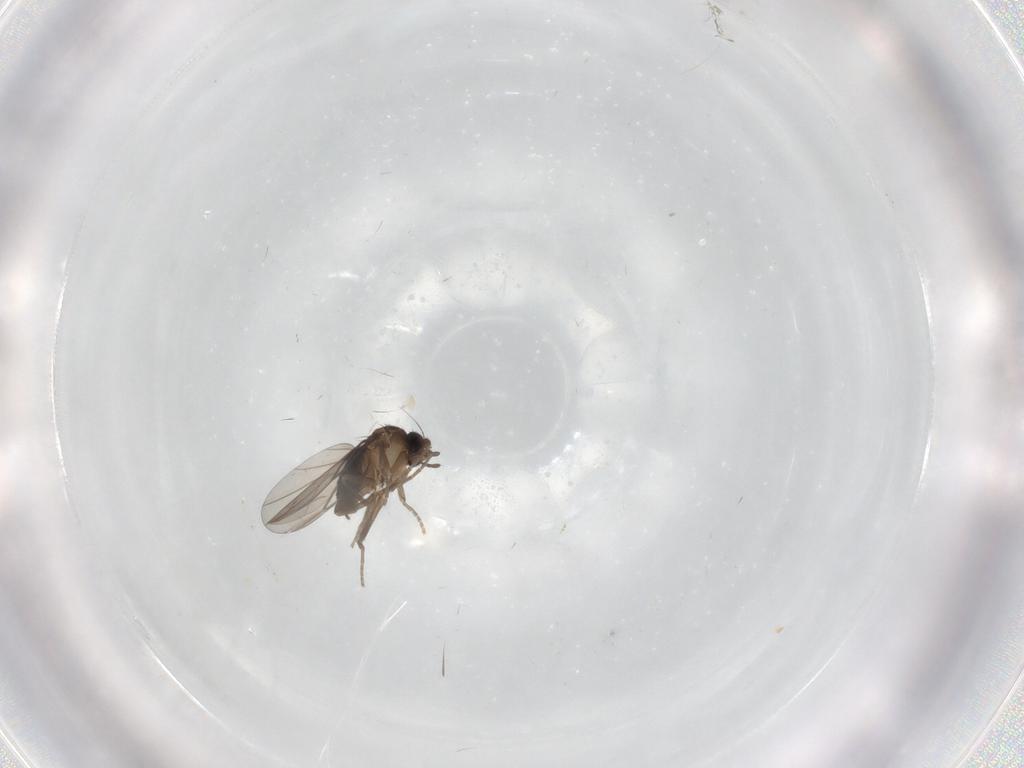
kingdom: Animalia
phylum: Arthropoda
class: Insecta
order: Diptera
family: Phoridae
